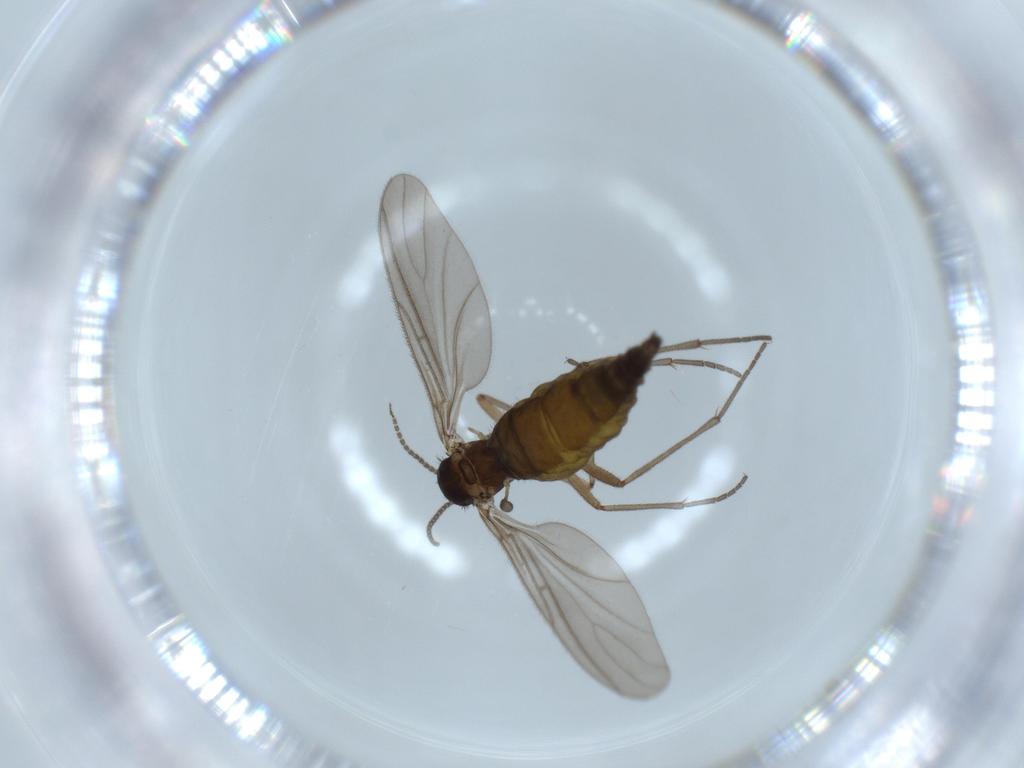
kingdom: Animalia
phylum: Arthropoda
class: Insecta
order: Diptera
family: Sciaridae
